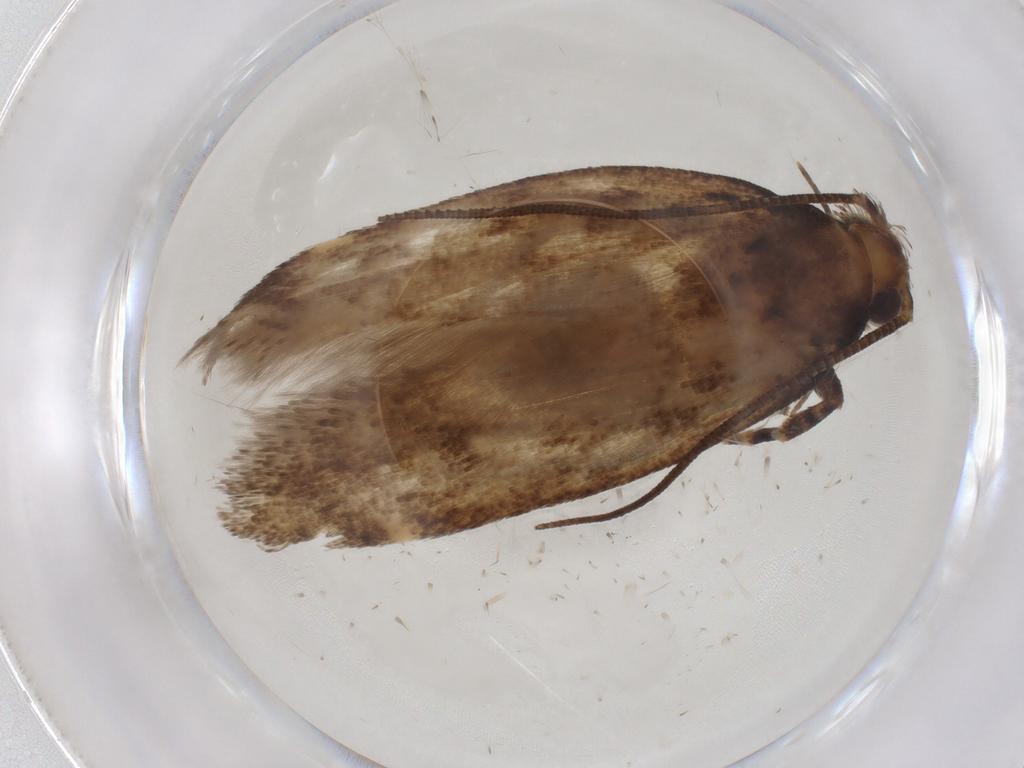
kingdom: Animalia
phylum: Arthropoda
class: Insecta
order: Lepidoptera
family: Gelechiidae
